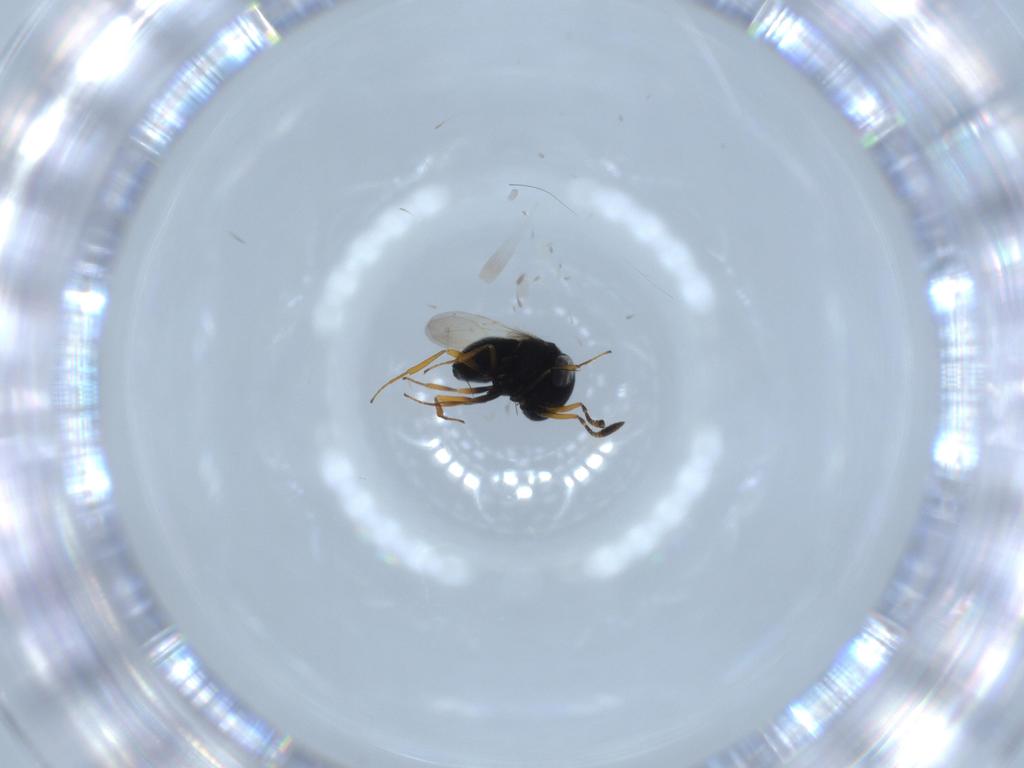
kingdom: Animalia
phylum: Arthropoda
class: Insecta
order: Hymenoptera
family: Scelionidae
